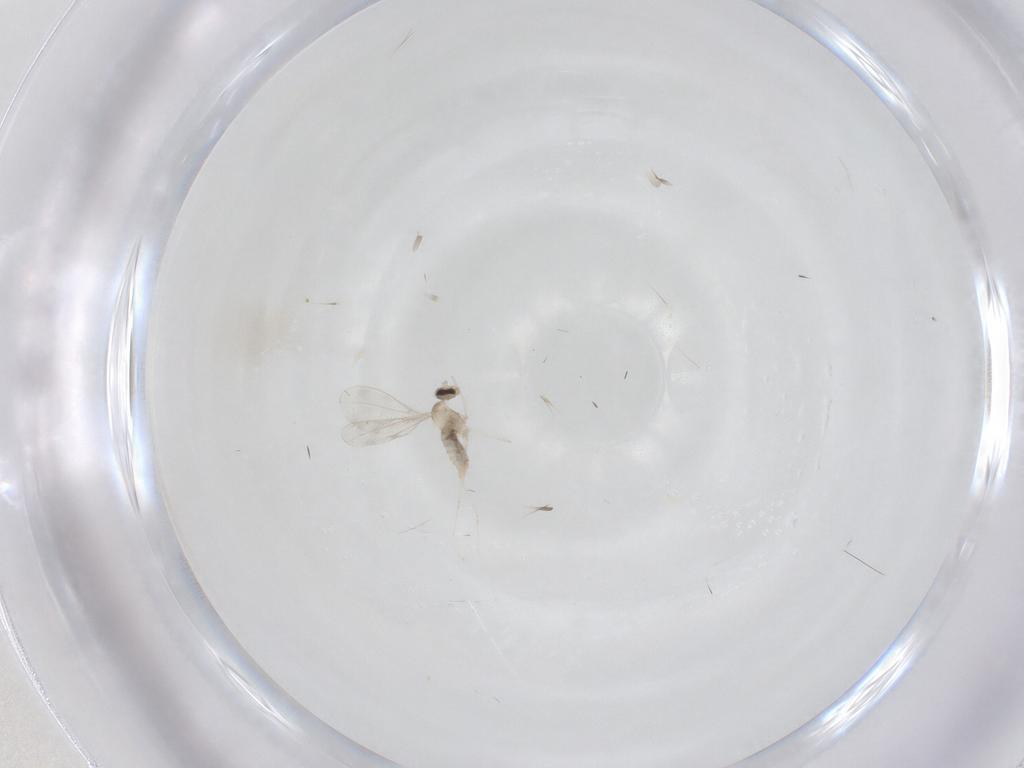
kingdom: Animalia
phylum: Arthropoda
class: Insecta
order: Diptera
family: Cecidomyiidae
